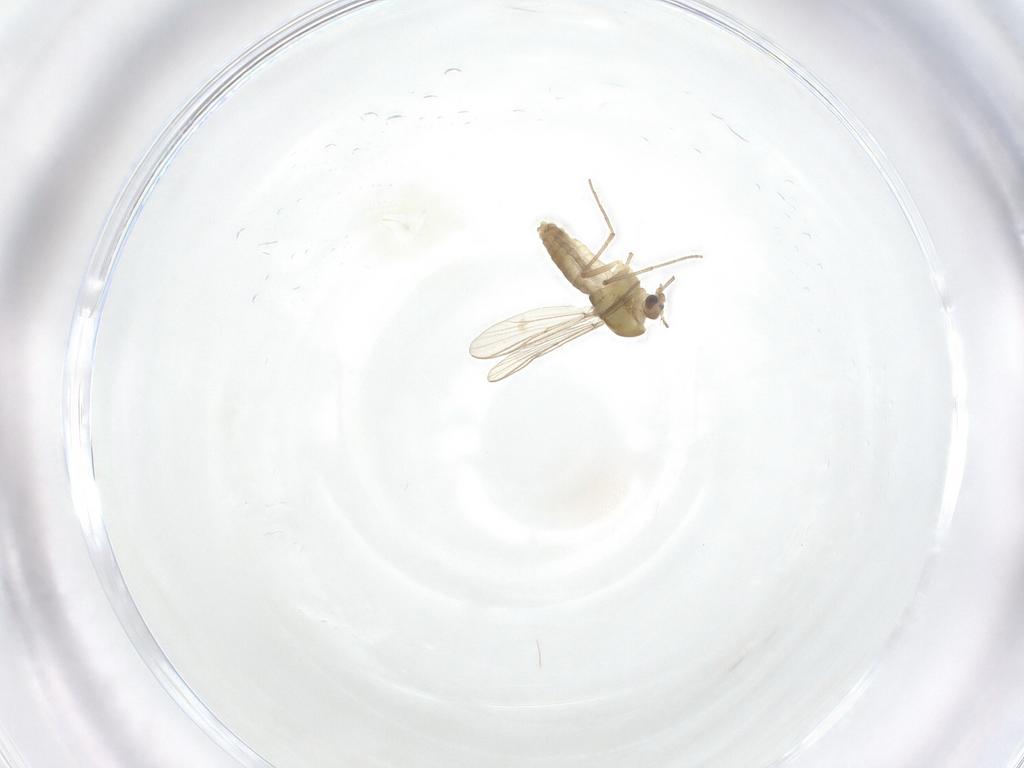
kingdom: Animalia
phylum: Arthropoda
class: Insecta
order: Diptera
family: Chironomidae
